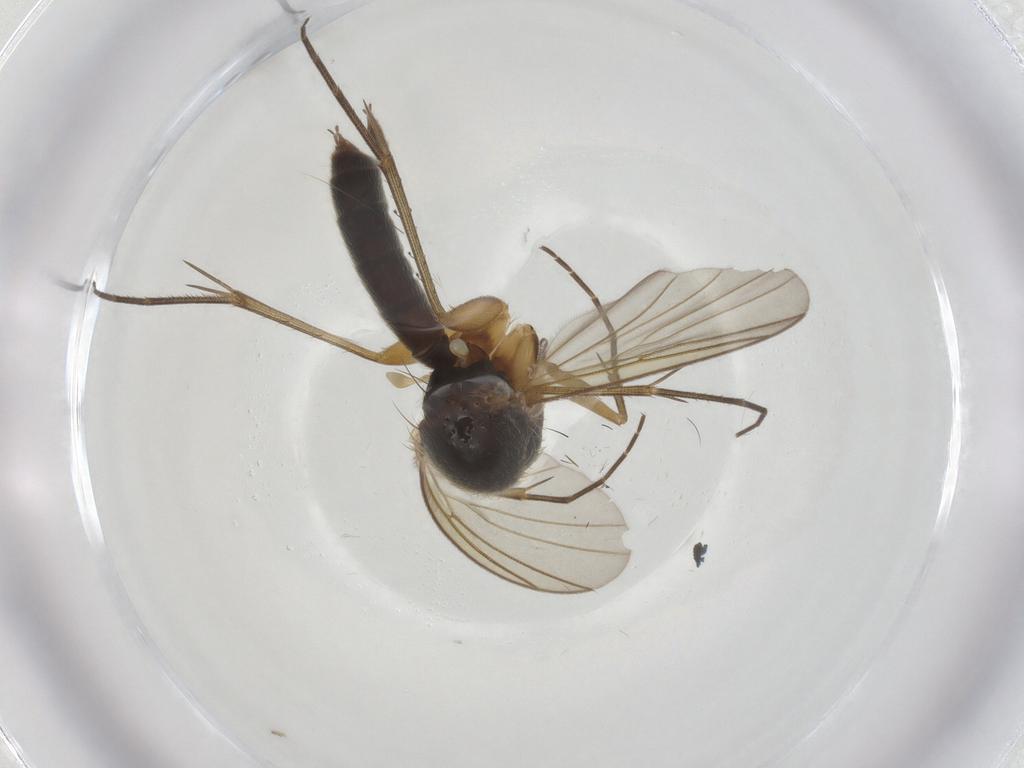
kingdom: Animalia
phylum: Arthropoda
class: Insecta
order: Diptera
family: Mycetophilidae
